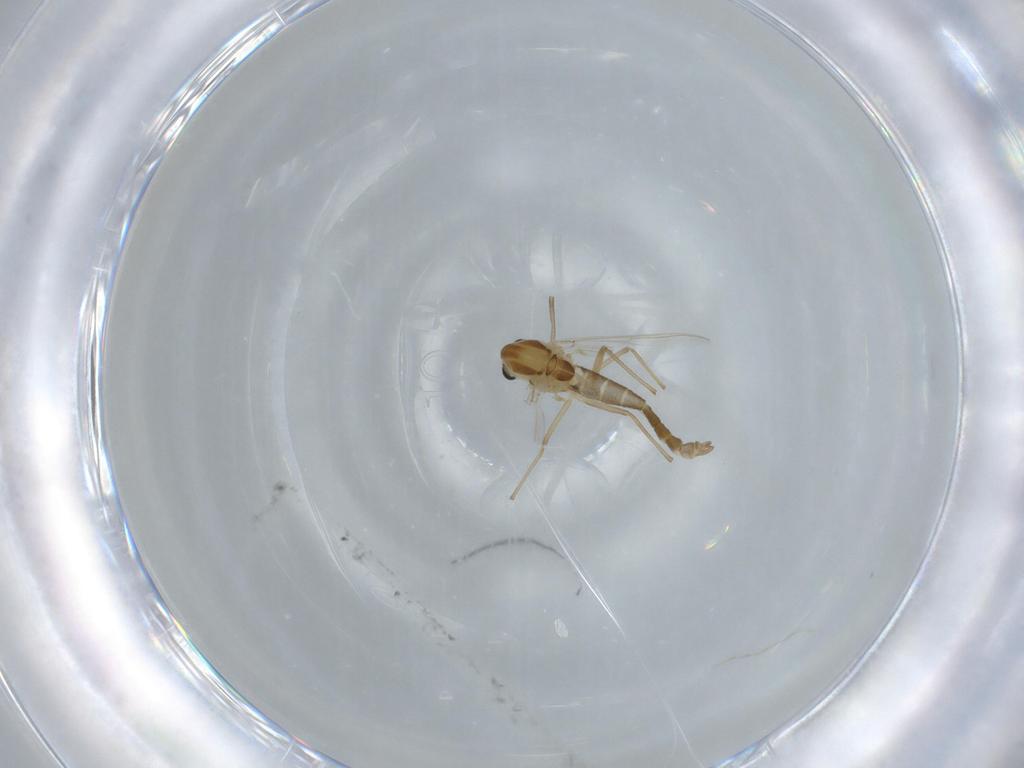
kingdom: Animalia
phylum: Arthropoda
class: Insecta
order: Diptera
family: Chironomidae
